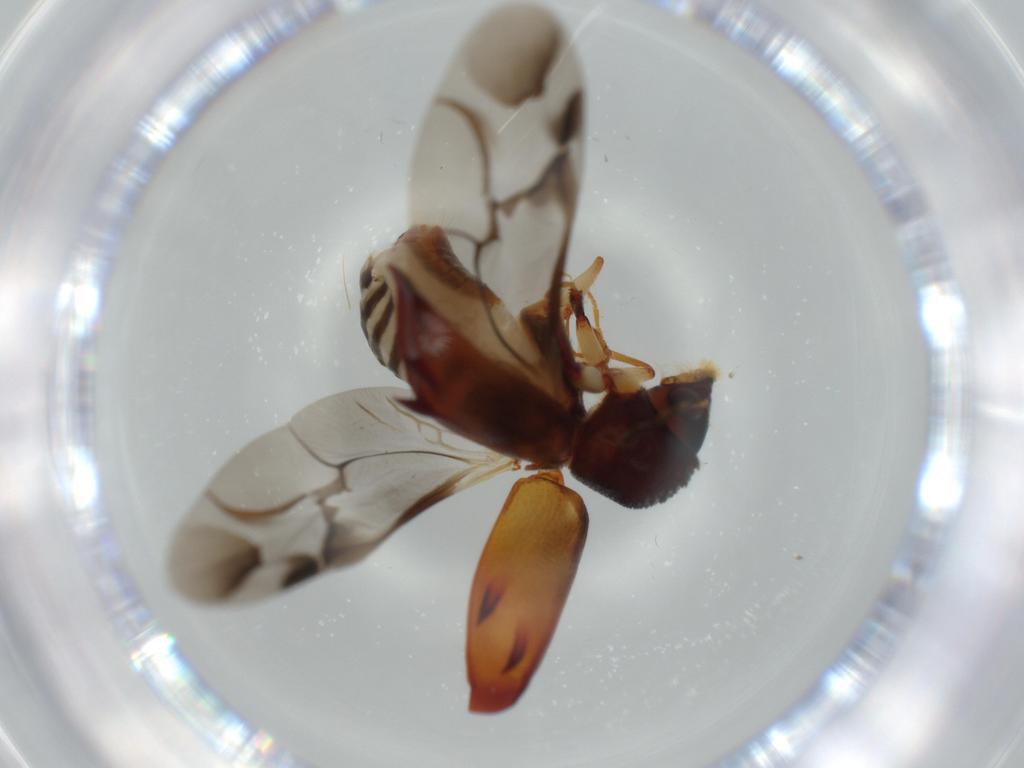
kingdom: Animalia
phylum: Arthropoda
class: Insecta
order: Coleoptera
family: Bostrichidae
